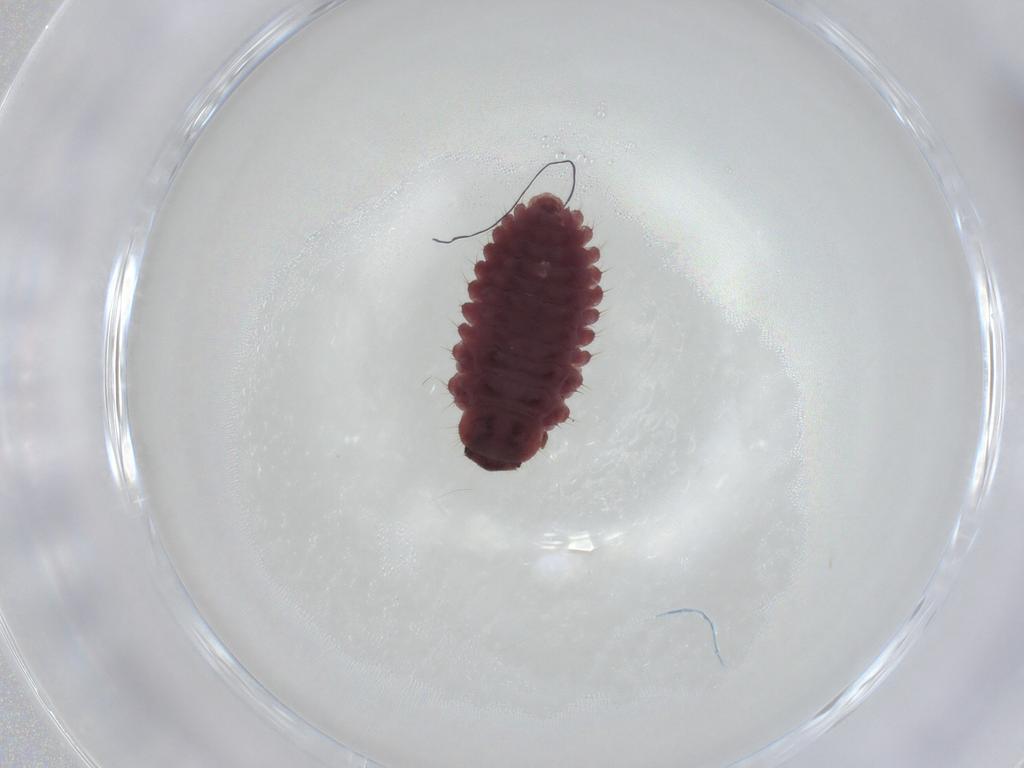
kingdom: Animalia
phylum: Arthropoda
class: Insecta
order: Coleoptera
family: Coccinellidae
